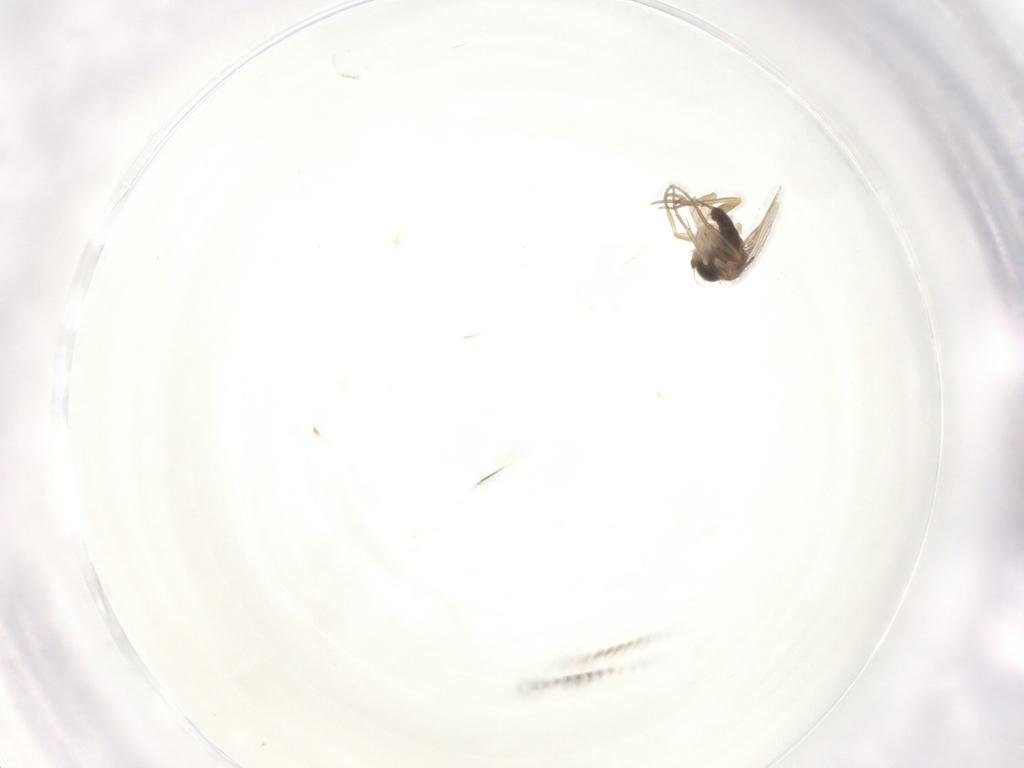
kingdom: Animalia
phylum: Arthropoda
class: Insecta
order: Diptera
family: Phoridae
